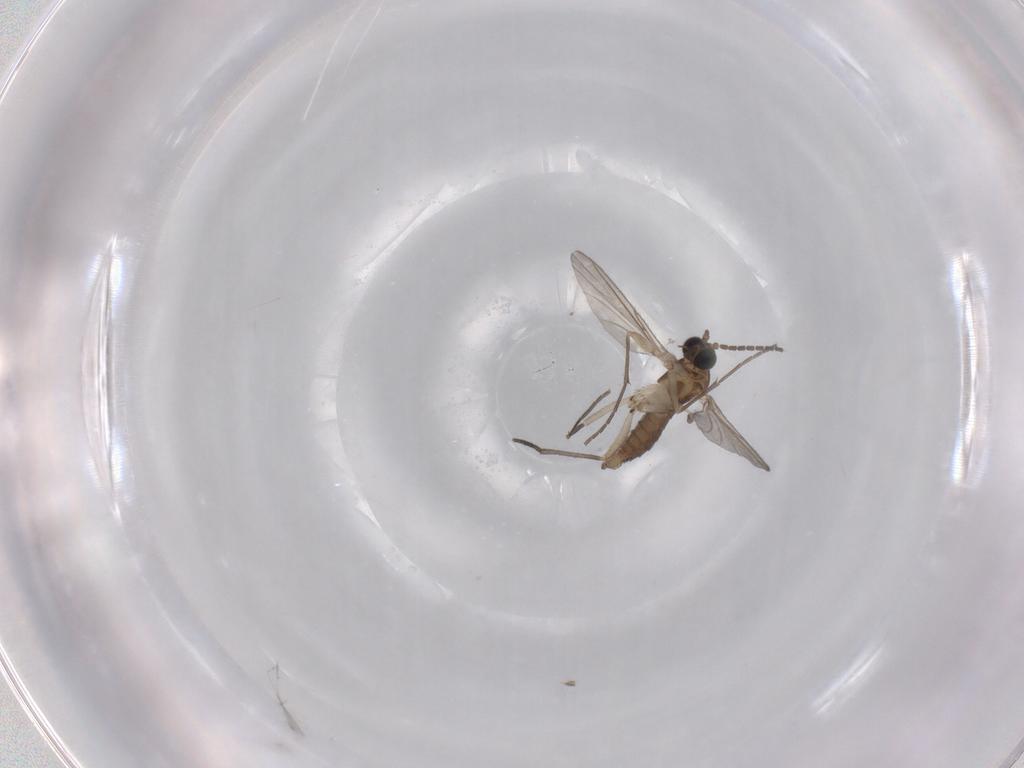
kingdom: Animalia
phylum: Arthropoda
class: Insecta
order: Diptera
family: Sciaridae
